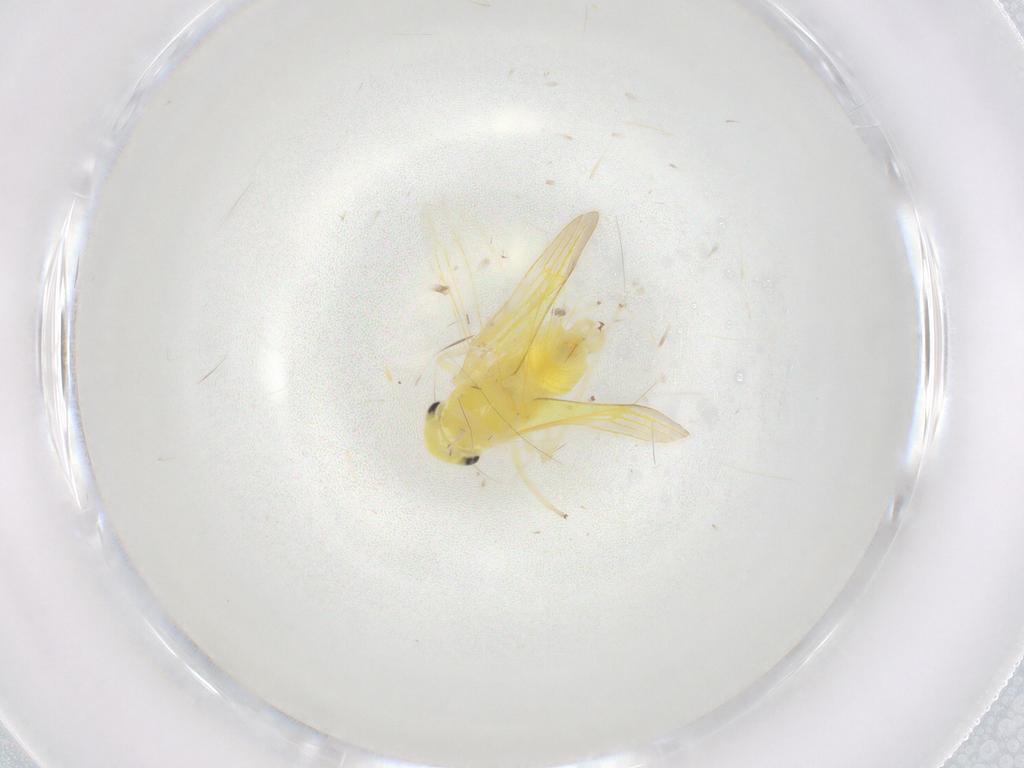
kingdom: Animalia
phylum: Arthropoda
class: Insecta
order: Hemiptera
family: Cicadellidae
